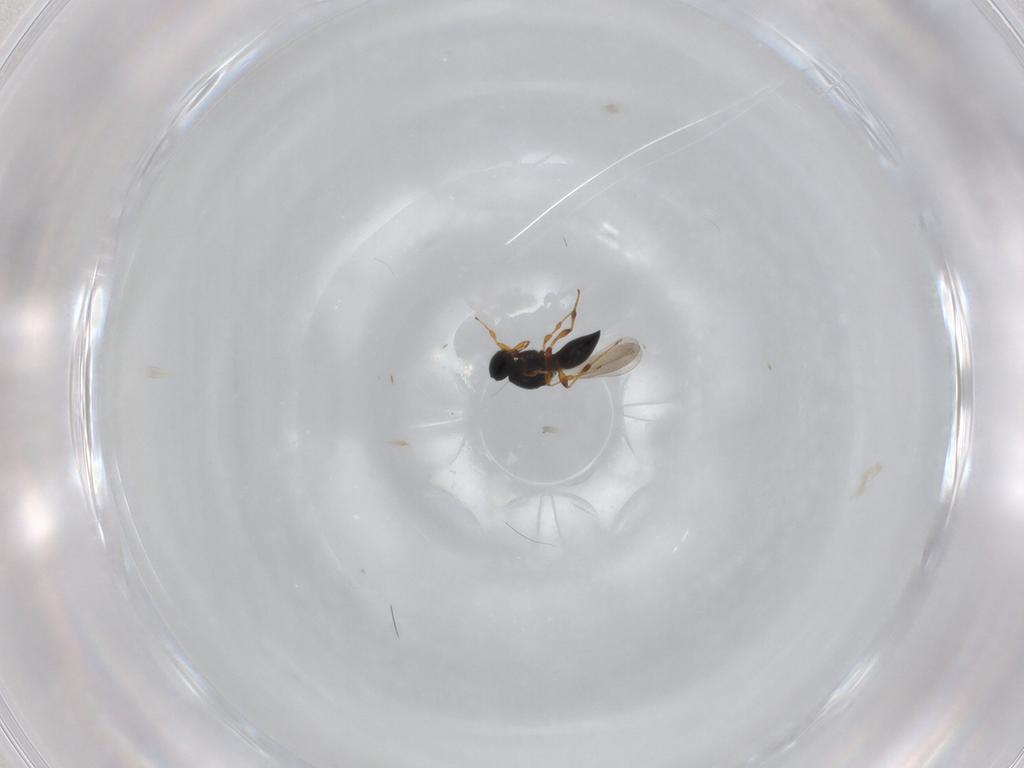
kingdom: Animalia
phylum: Arthropoda
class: Insecta
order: Hymenoptera
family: Platygastridae
